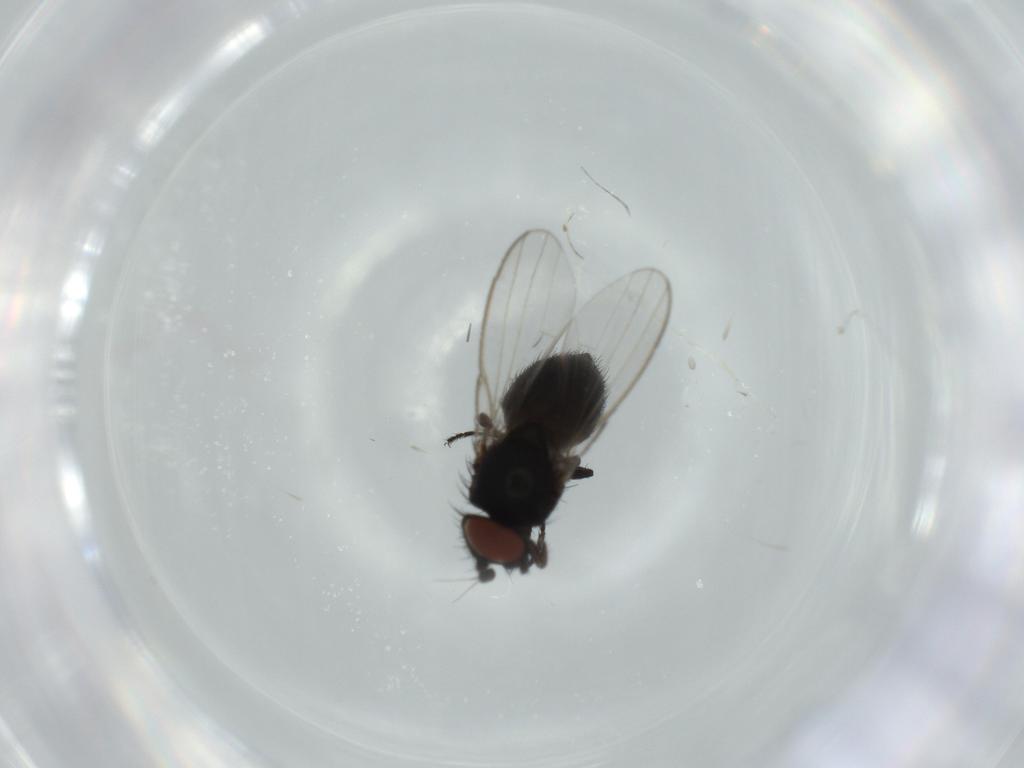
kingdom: Animalia
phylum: Arthropoda
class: Insecta
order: Diptera
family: Milichiidae
